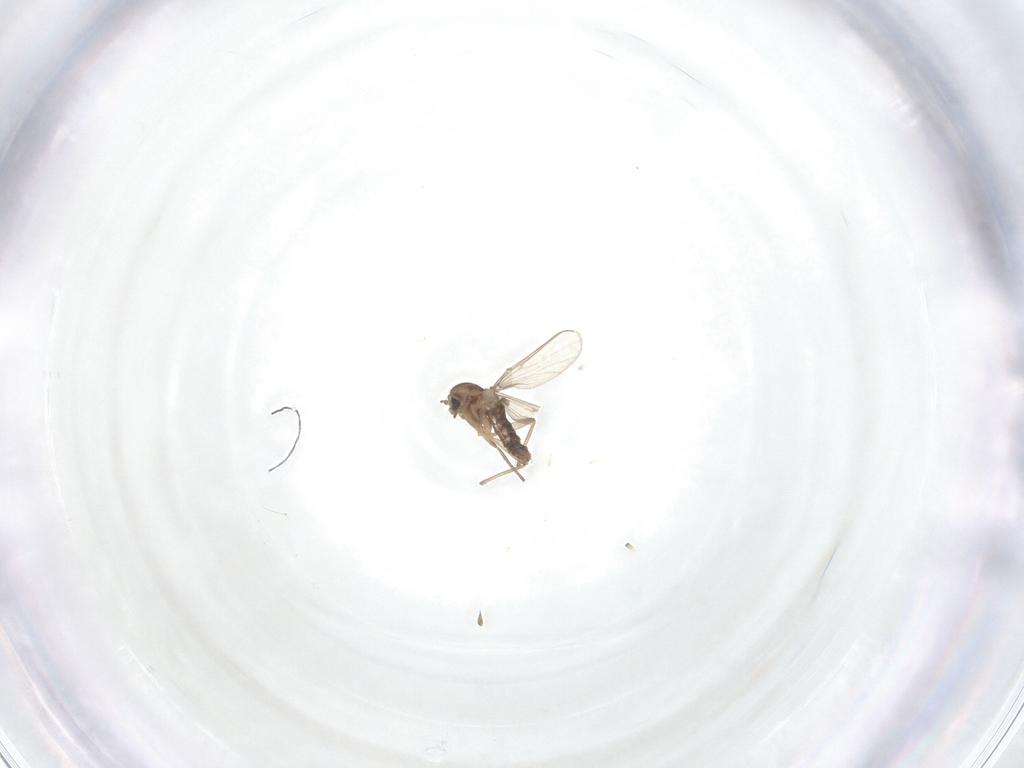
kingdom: Animalia
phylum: Arthropoda
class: Insecta
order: Diptera
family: Chironomidae
